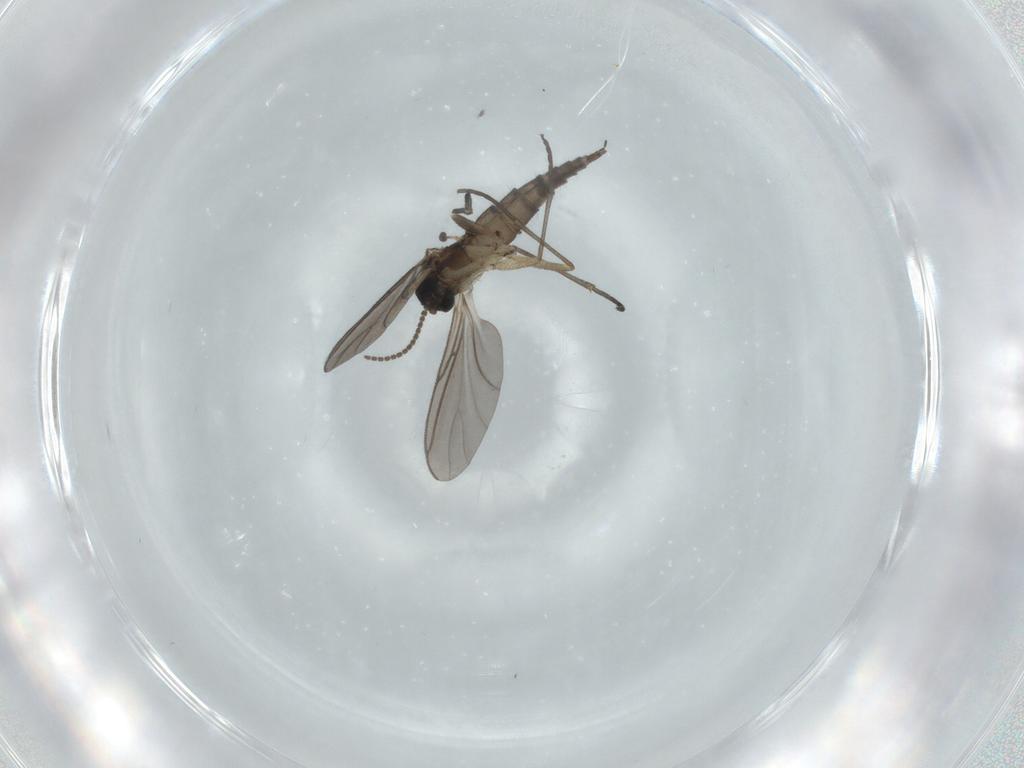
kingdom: Animalia
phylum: Arthropoda
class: Insecta
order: Diptera
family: Sciaridae
